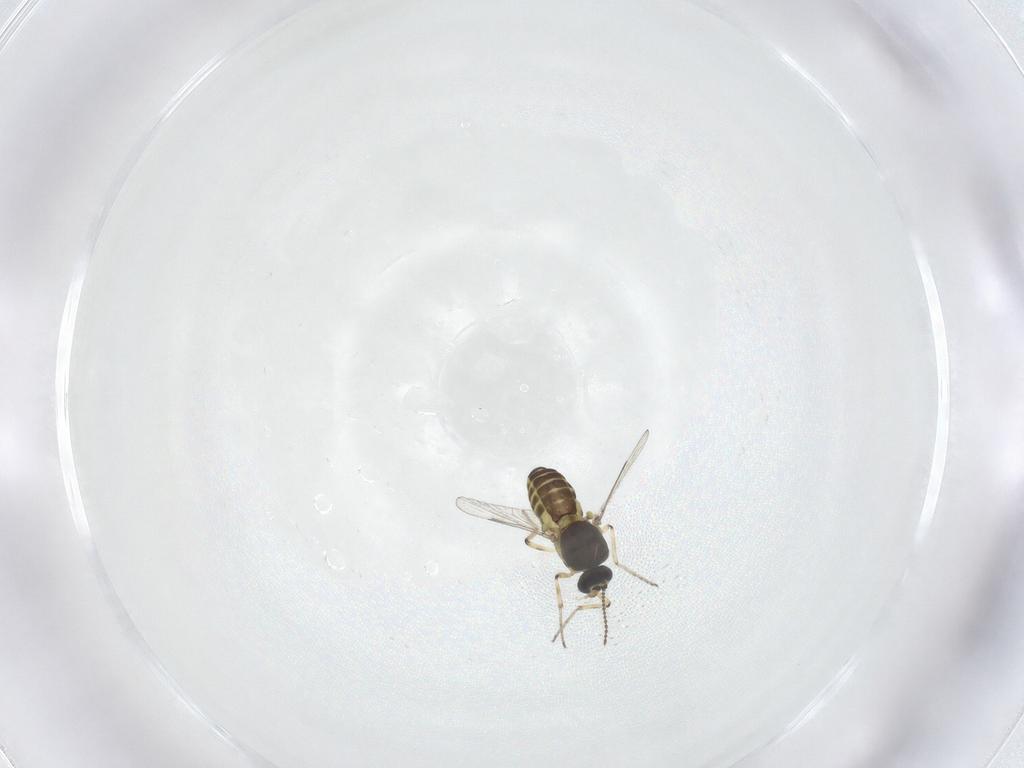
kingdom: Animalia
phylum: Arthropoda
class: Insecta
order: Diptera
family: Ceratopogonidae
